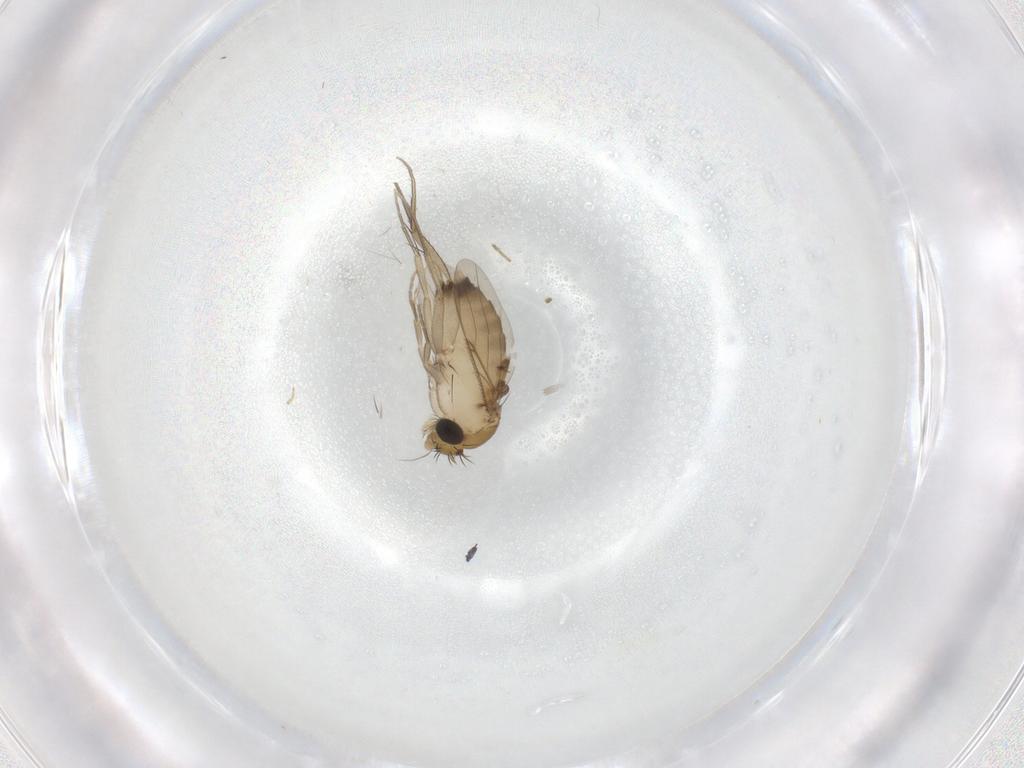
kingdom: Animalia
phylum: Arthropoda
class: Insecta
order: Diptera
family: Phoridae
